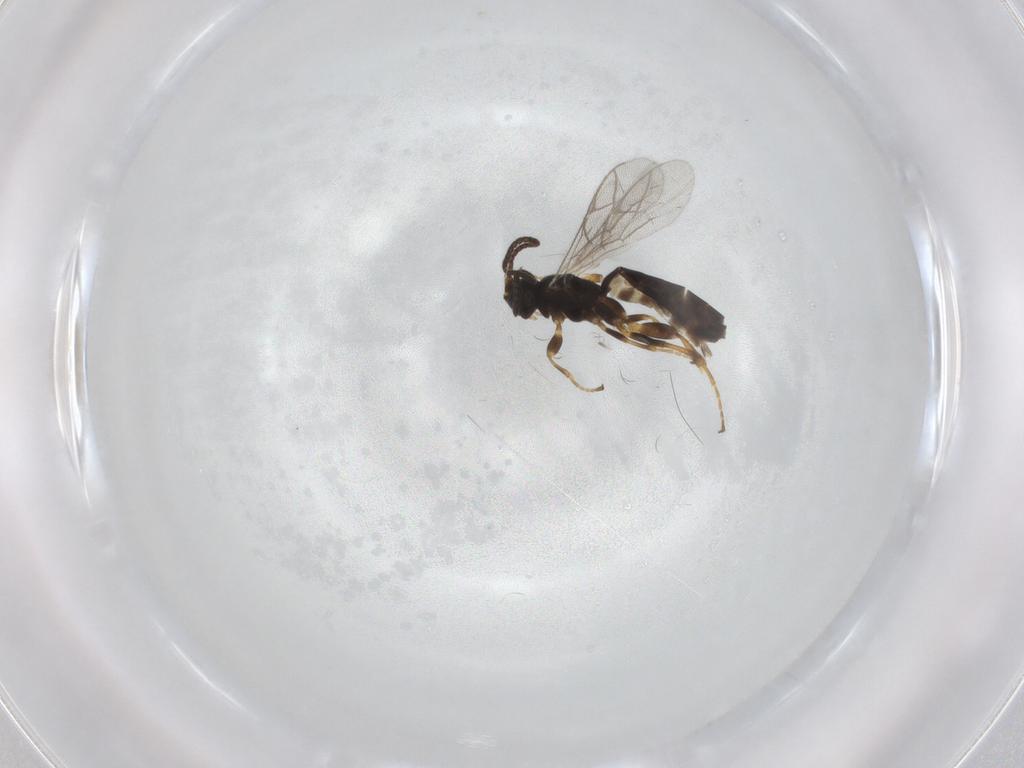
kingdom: Animalia
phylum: Arthropoda
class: Insecta
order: Hymenoptera
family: Ichneumonidae
